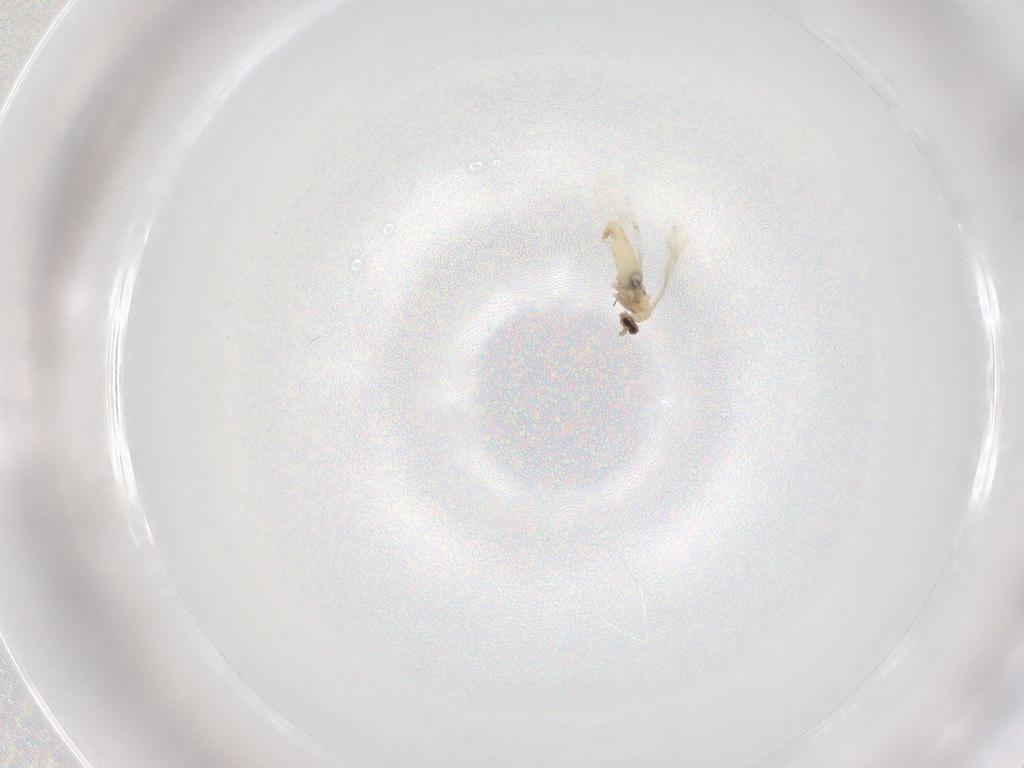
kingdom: Animalia
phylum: Arthropoda
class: Insecta
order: Diptera
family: Cecidomyiidae
